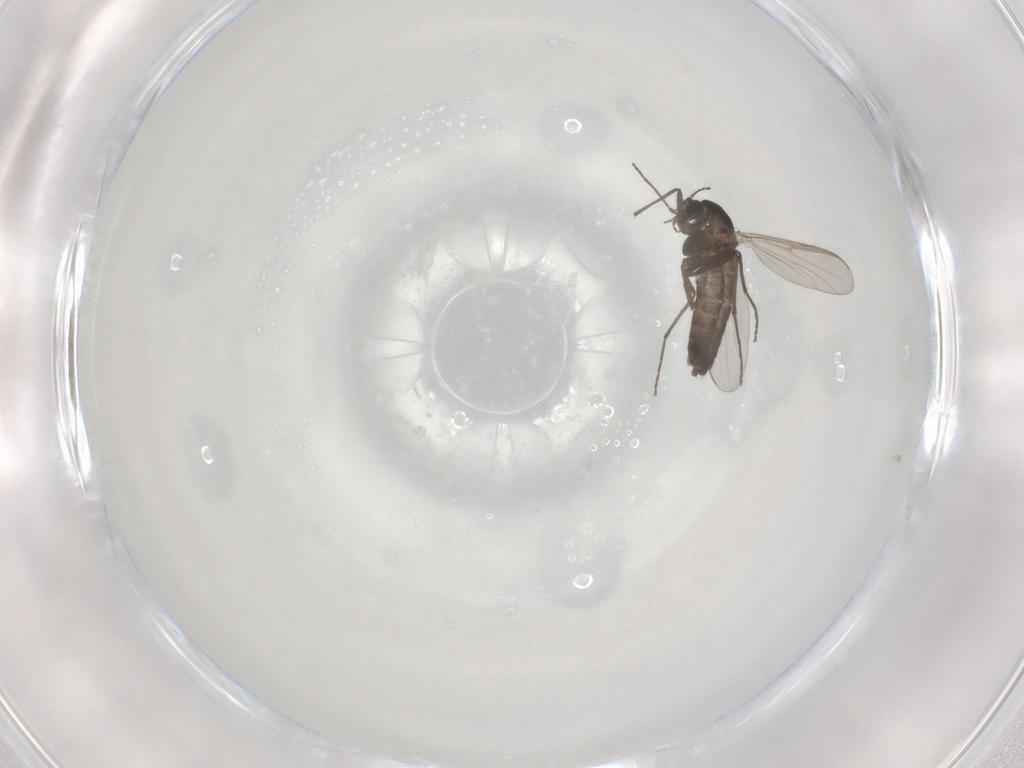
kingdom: Animalia
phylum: Arthropoda
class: Insecta
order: Diptera
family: Chironomidae
